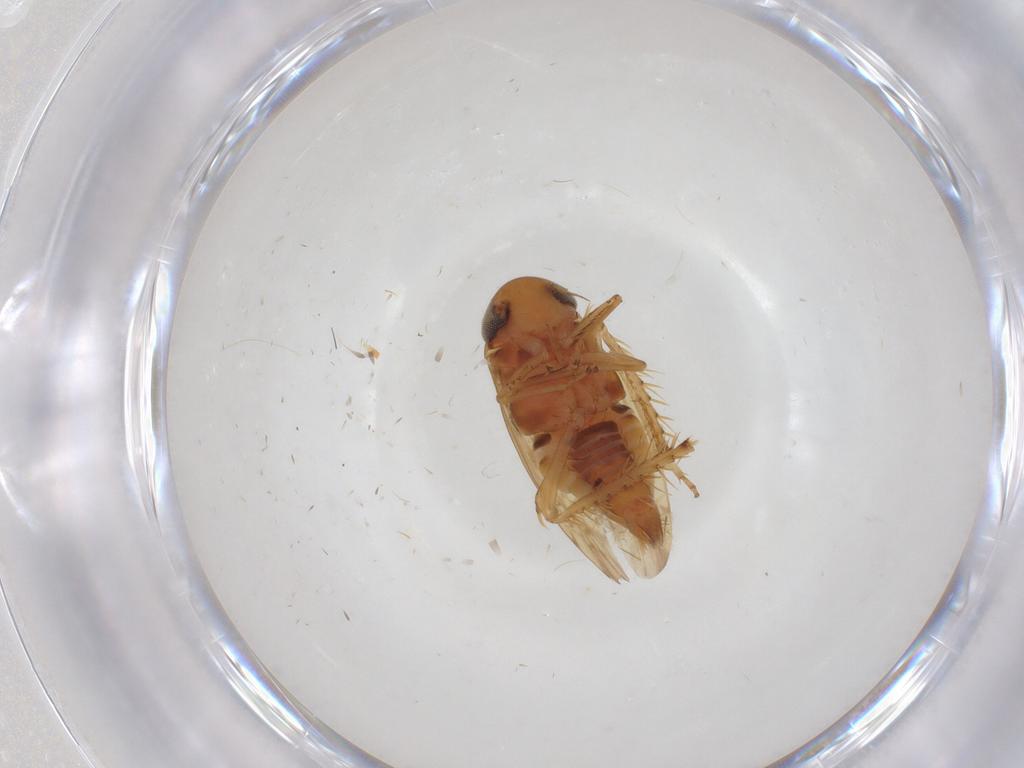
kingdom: Animalia
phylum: Arthropoda
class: Insecta
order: Hemiptera
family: Cicadellidae
